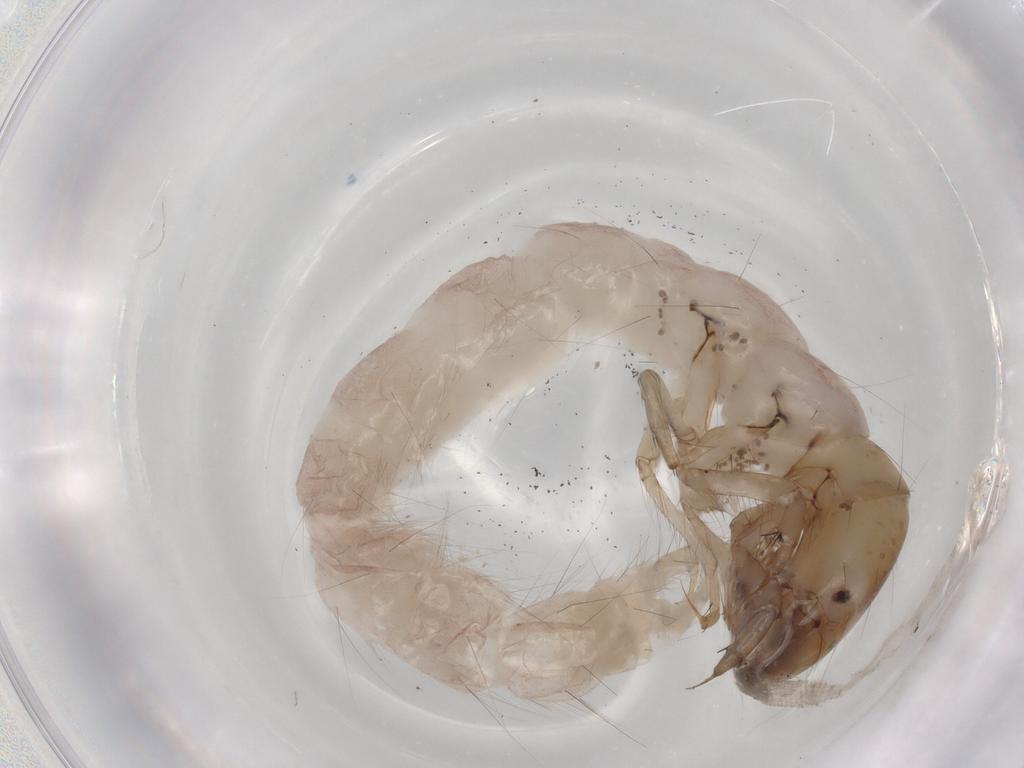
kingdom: Animalia
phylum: Arthropoda
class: Insecta
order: Trichoptera
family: Polycentropodidae
